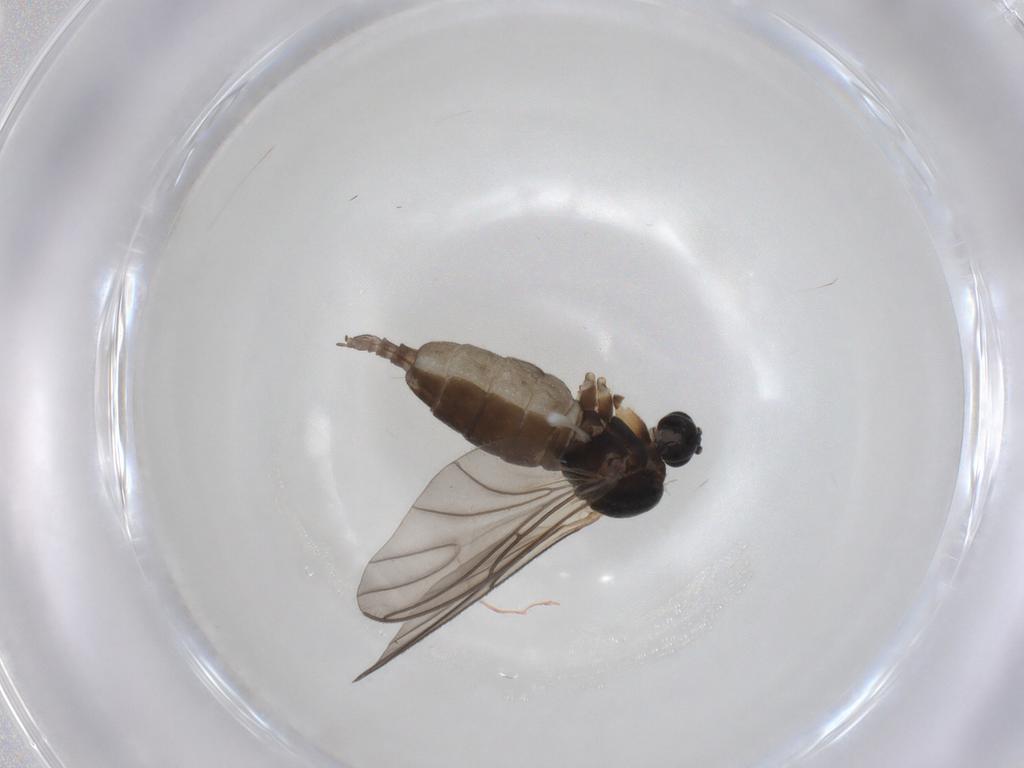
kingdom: Animalia
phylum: Arthropoda
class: Insecta
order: Diptera
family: Sciaridae
